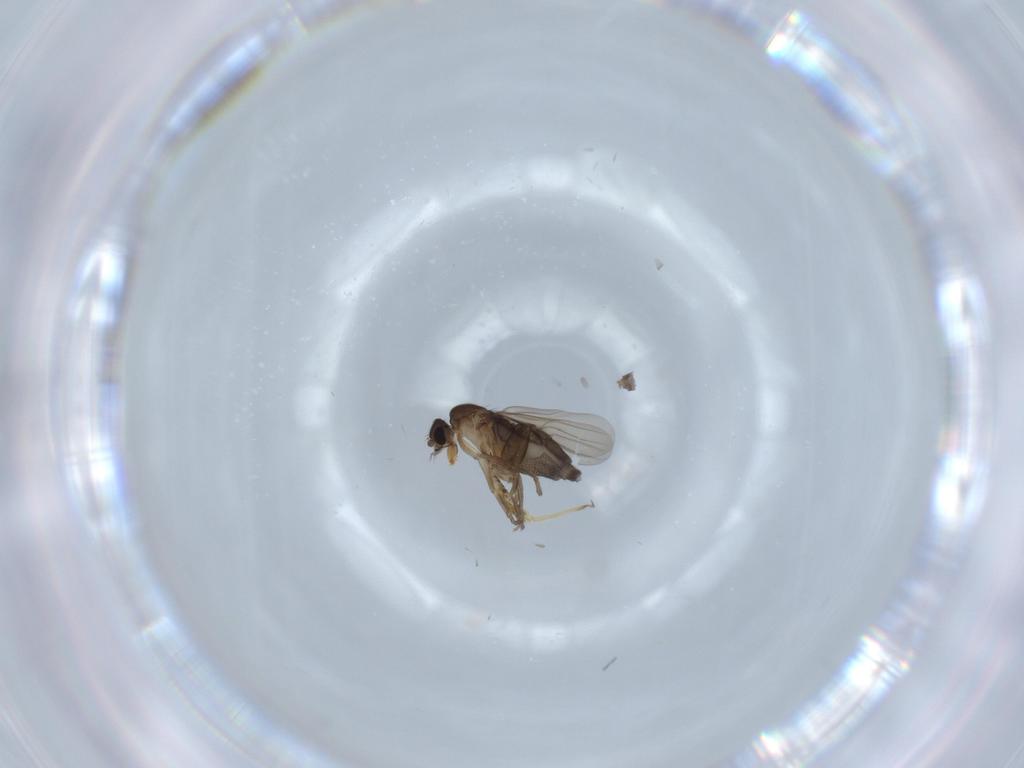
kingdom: Animalia
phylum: Arthropoda
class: Insecta
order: Diptera
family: Phoridae
